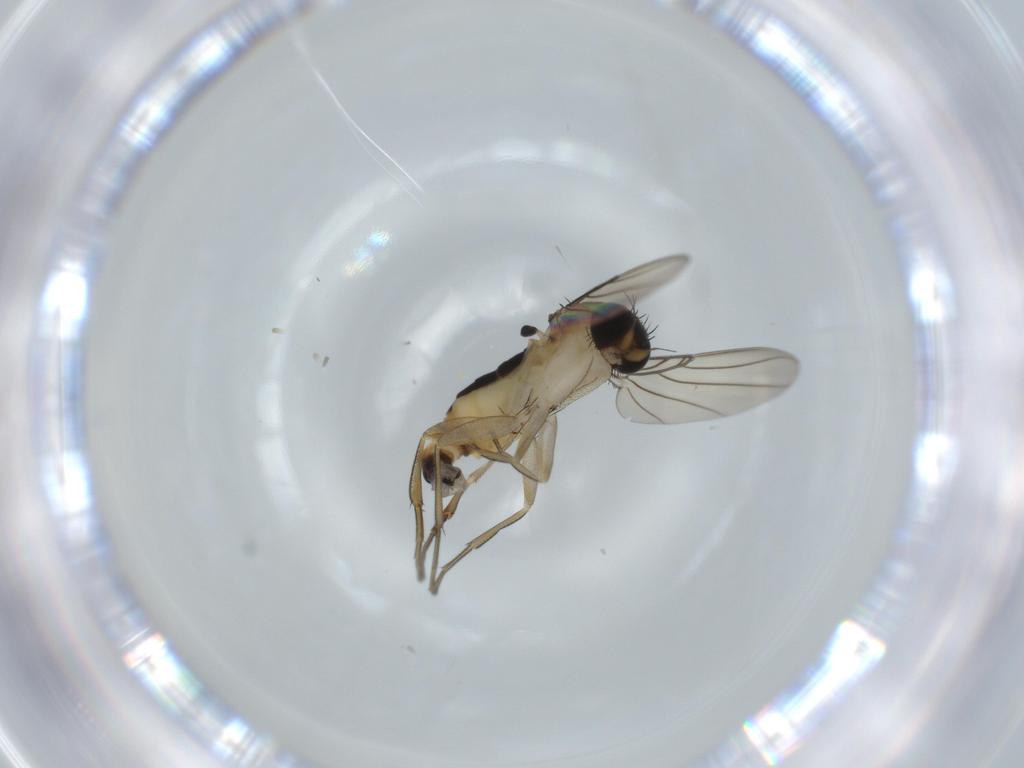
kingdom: Animalia
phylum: Arthropoda
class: Insecta
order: Diptera
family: Phoridae
